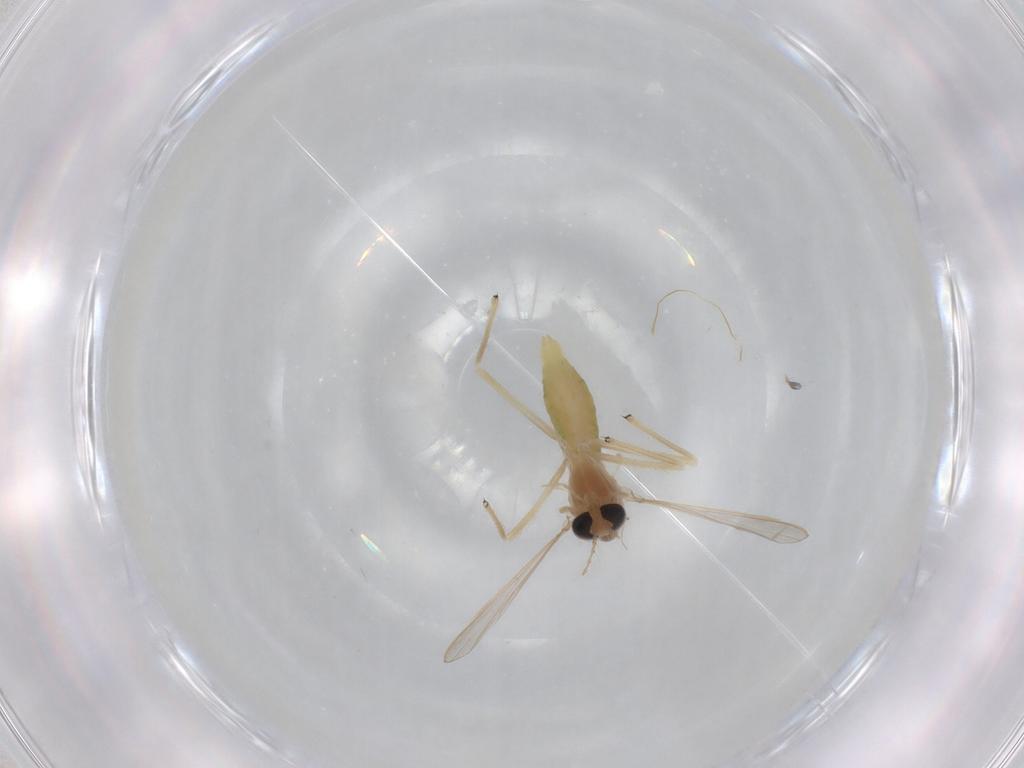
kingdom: Animalia
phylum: Arthropoda
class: Insecta
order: Diptera
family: Chironomidae
